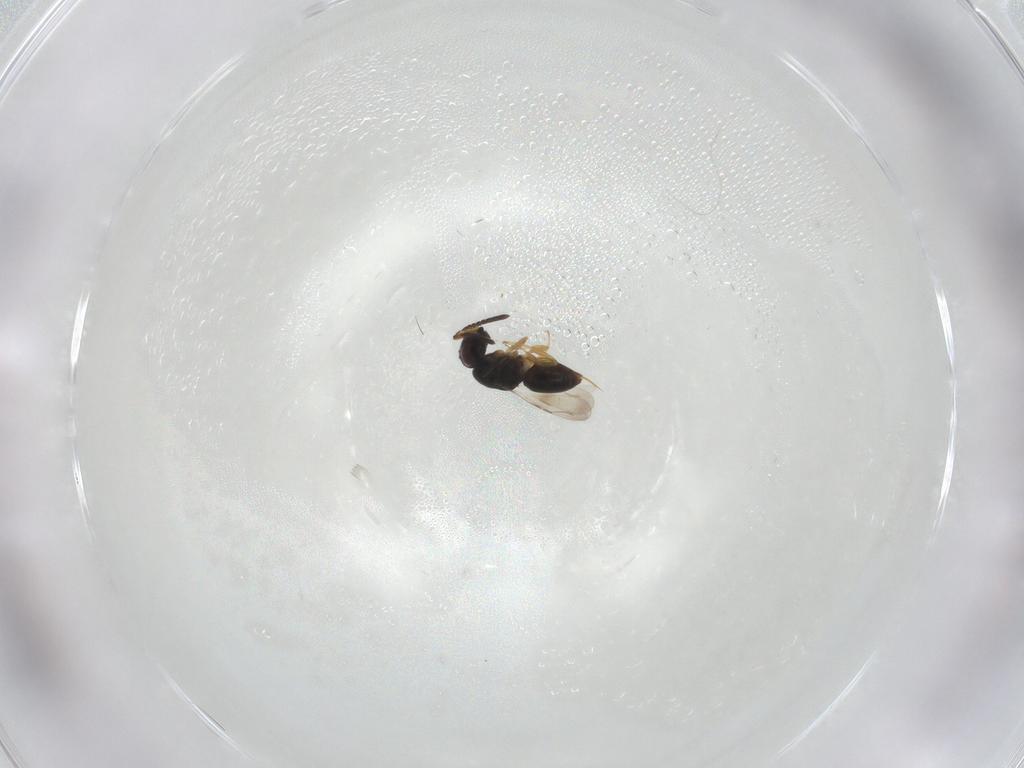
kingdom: Animalia
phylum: Arthropoda
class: Insecta
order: Hymenoptera
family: Ceraphronidae
